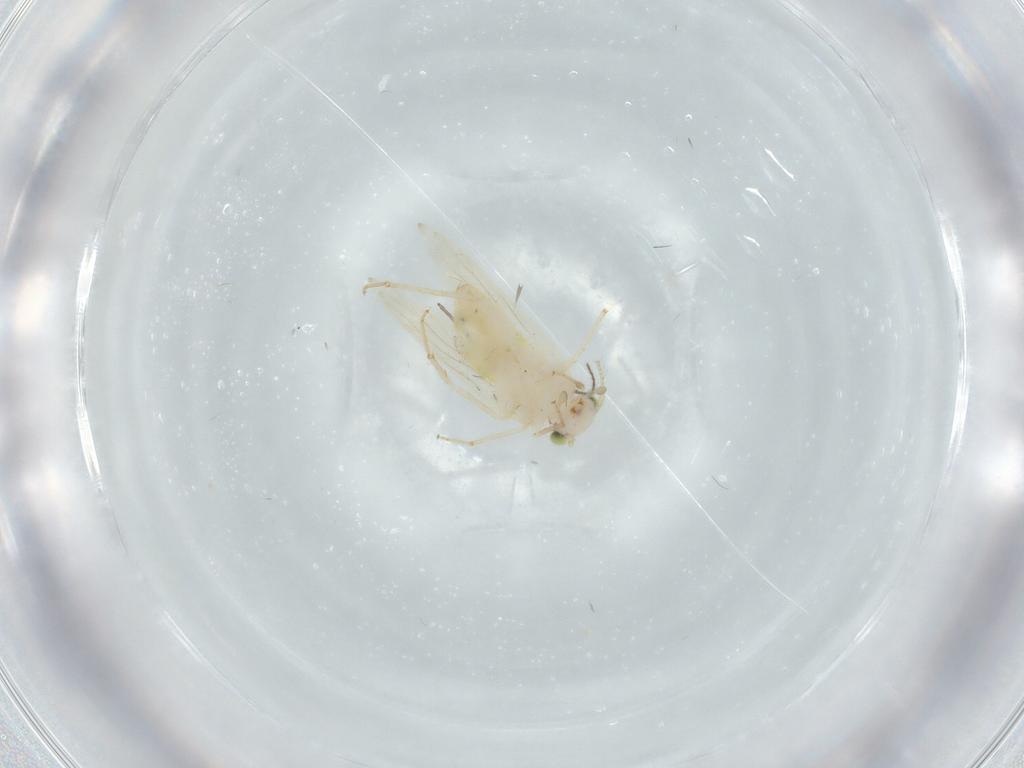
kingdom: Animalia
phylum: Arthropoda
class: Insecta
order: Psocodea
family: Lepidopsocidae
